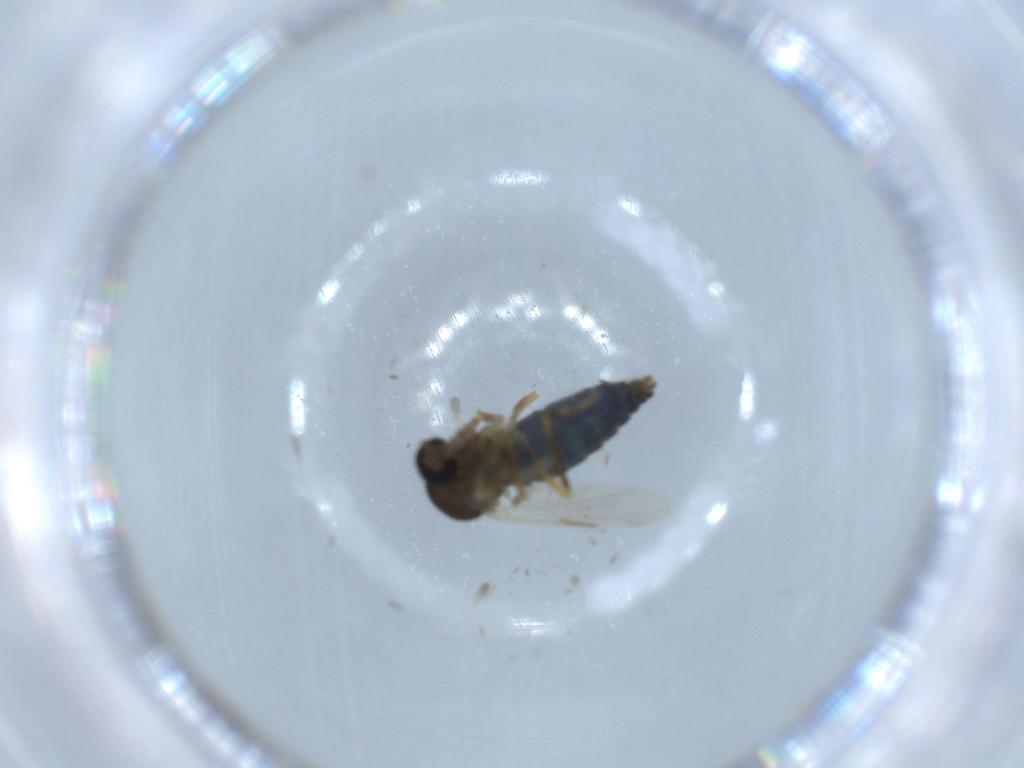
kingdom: Animalia
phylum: Arthropoda
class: Insecta
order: Diptera
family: Ceratopogonidae
